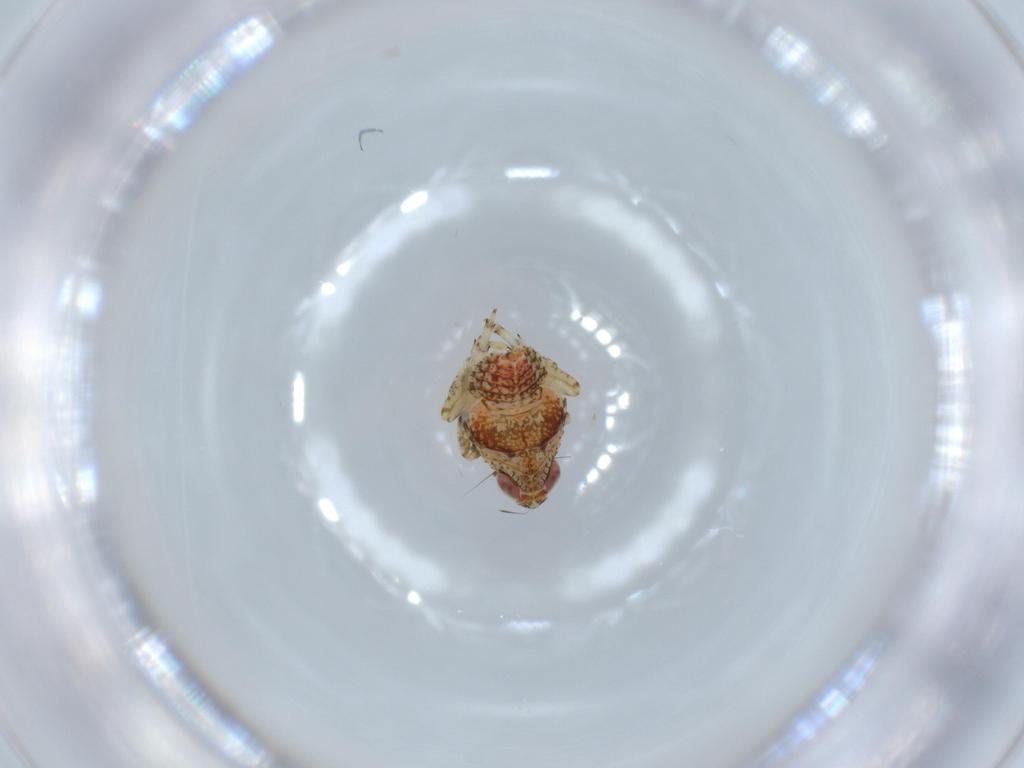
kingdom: Animalia
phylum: Arthropoda
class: Insecta
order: Hemiptera
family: Issidae
